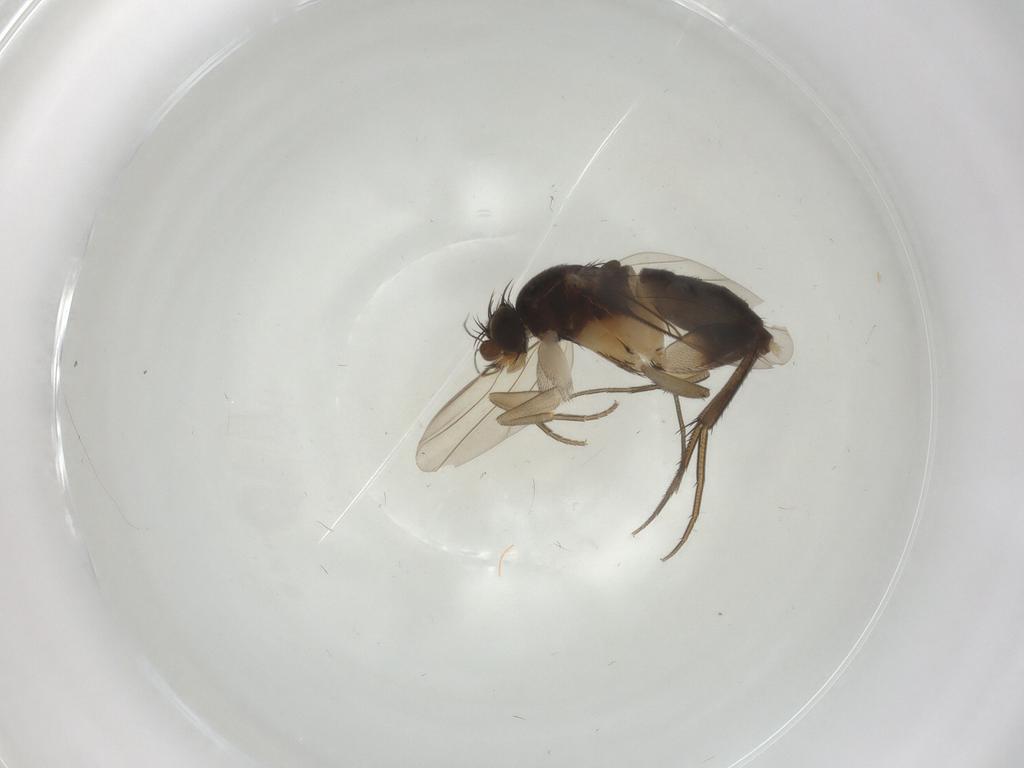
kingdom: Animalia
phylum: Arthropoda
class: Insecta
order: Diptera
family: Phoridae
